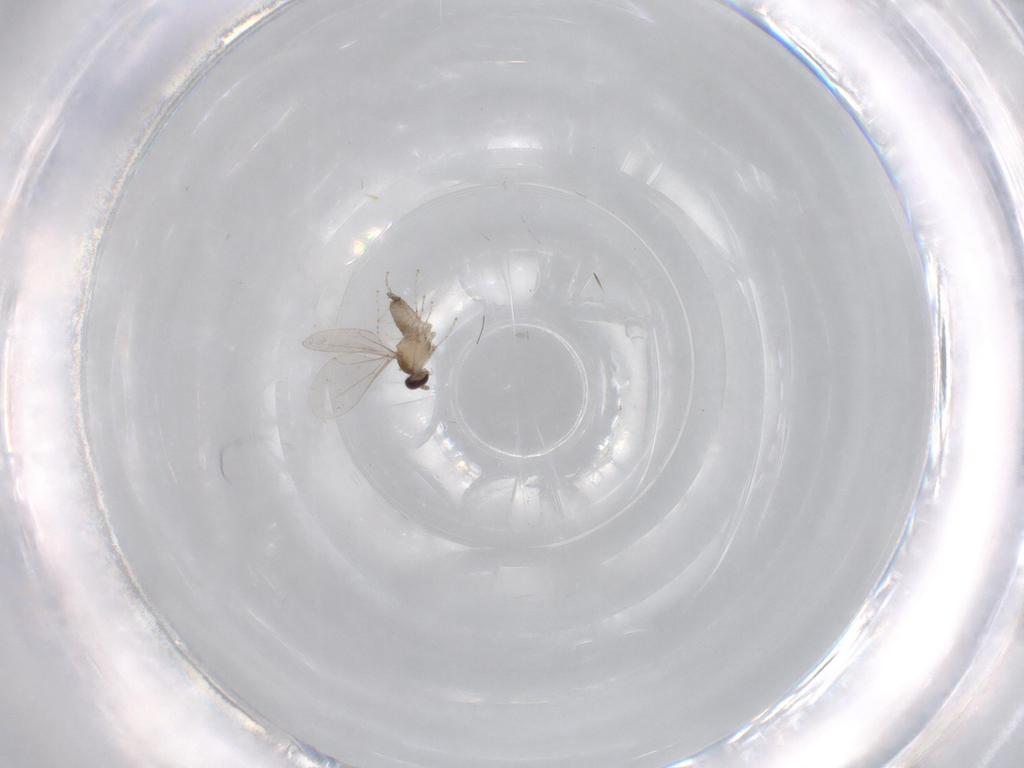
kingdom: Animalia
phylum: Arthropoda
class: Insecta
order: Diptera
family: Cecidomyiidae
